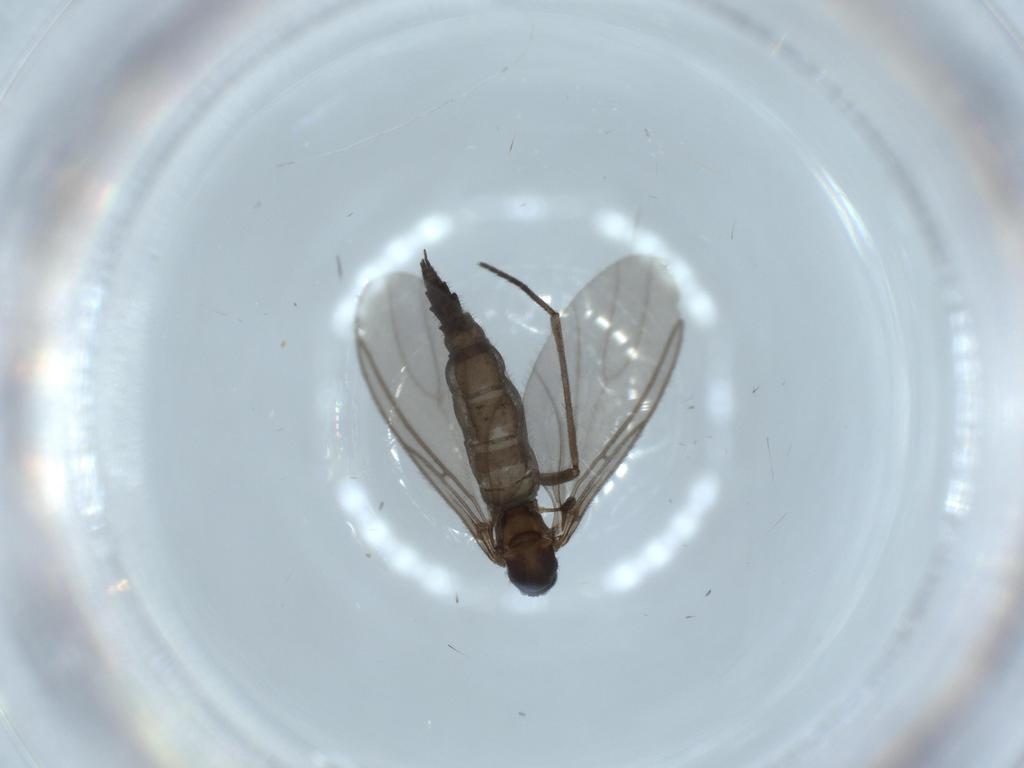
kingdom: Animalia
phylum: Arthropoda
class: Insecta
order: Diptera
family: Sciaridae
